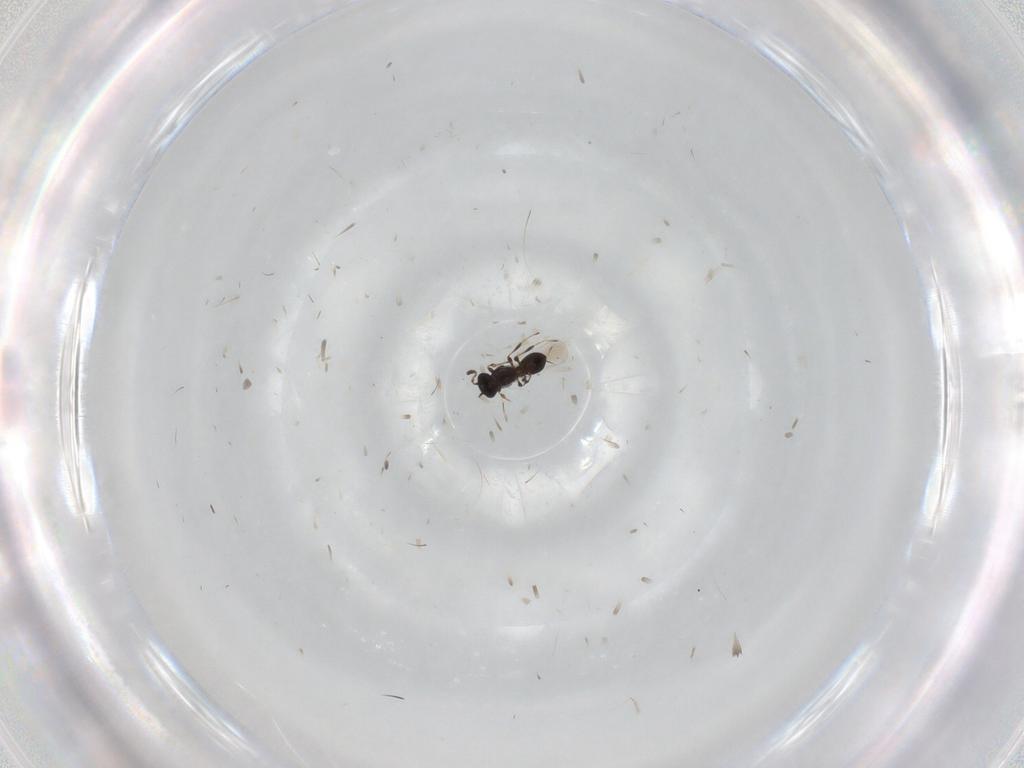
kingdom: Animalia
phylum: Arthropoda
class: Insecta
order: Hymenoptera
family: Platygastridae
